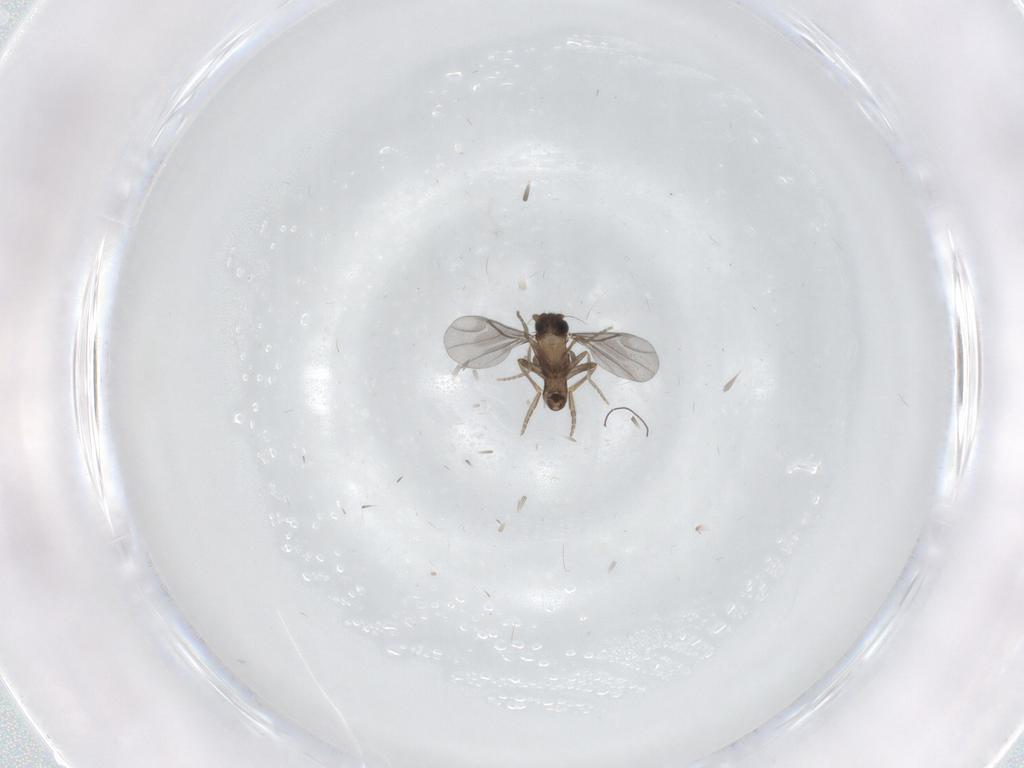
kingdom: Animalia
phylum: Arthropoda
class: Insecta
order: Diptera
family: Phoridae
